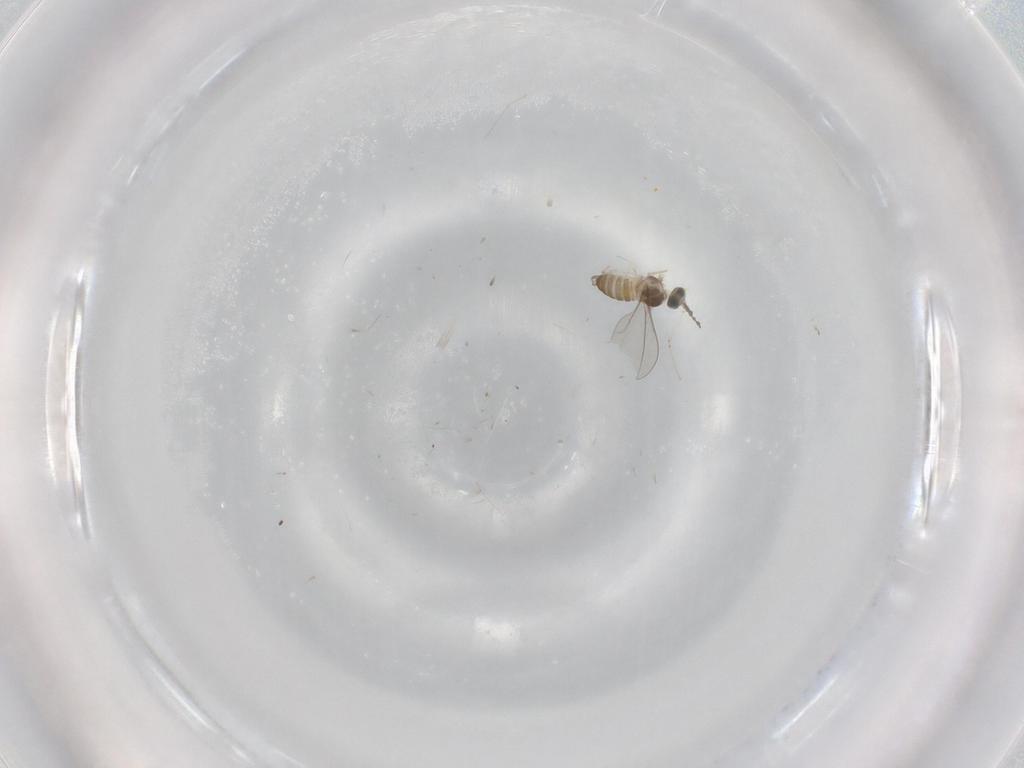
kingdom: Animalia
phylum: Arthropoda
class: Insecta
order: Diptera
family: Cecidomyiidae
